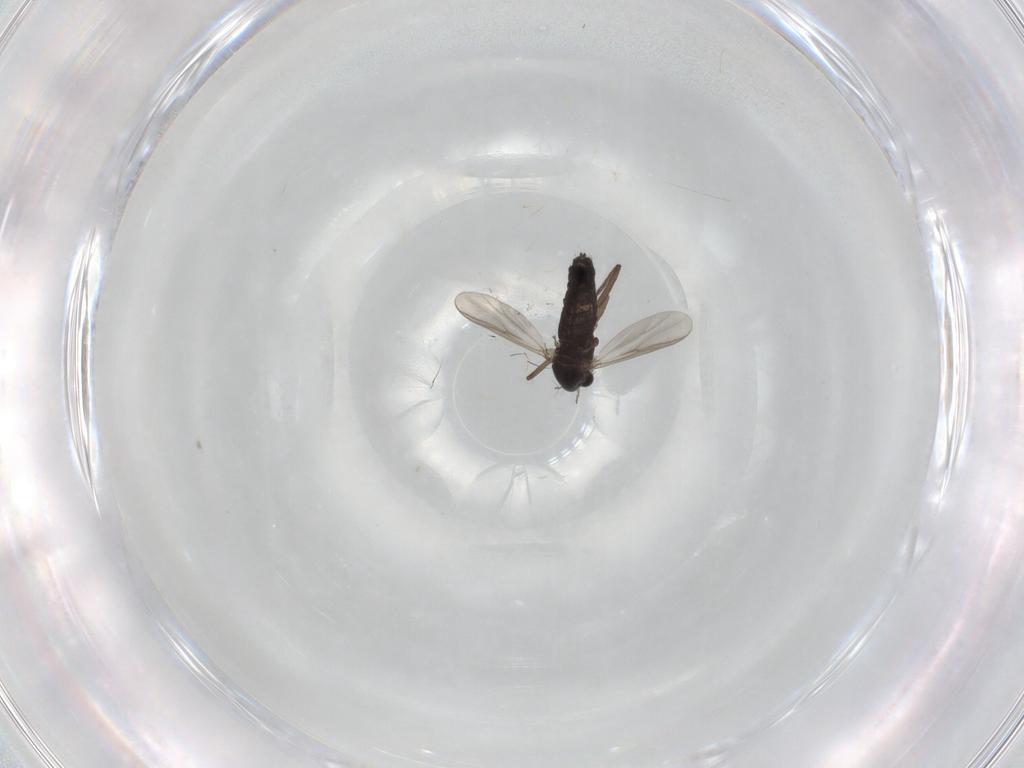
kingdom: Animalia
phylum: Arthropoda
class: Insecta
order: Diptera
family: Chironomidae
